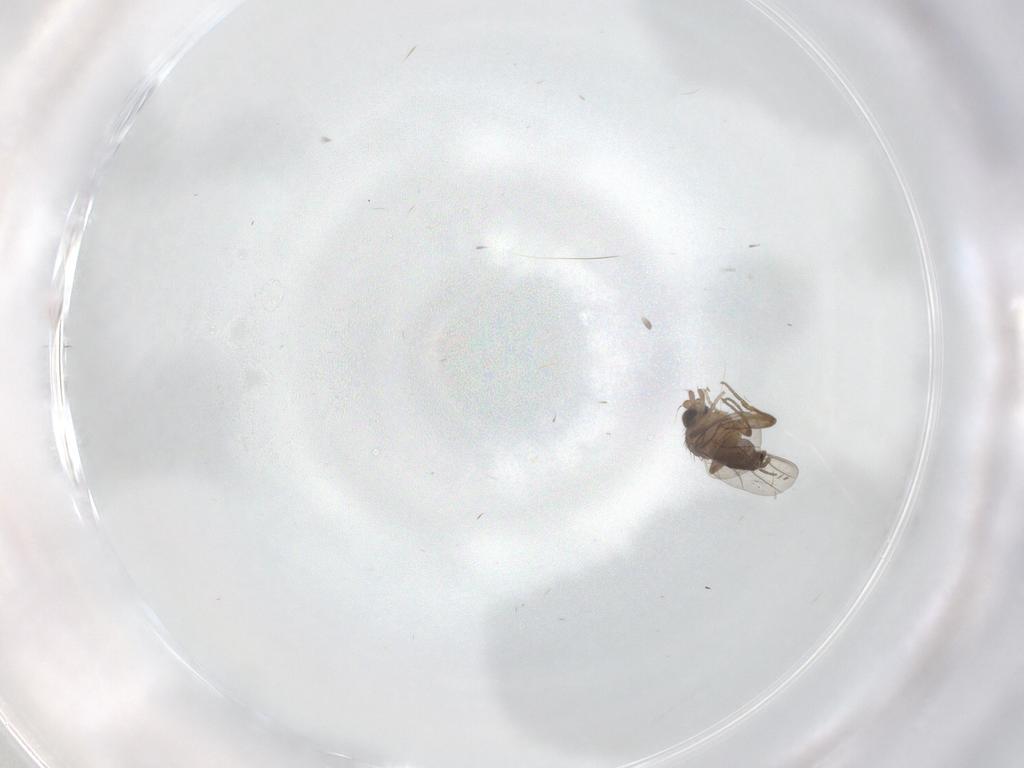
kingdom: Animalia
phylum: Arthropoda
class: Insecta
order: Diptera
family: Phoridae
